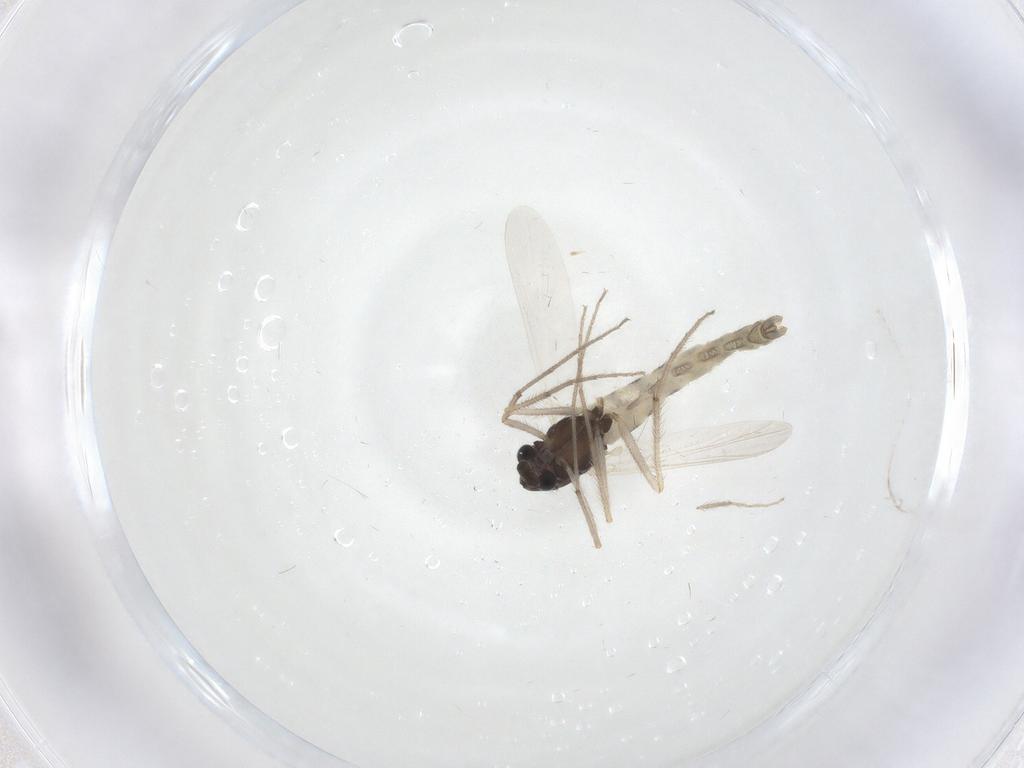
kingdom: Animalia
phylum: Arthropoda
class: Insecta
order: Diptera
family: Chironomidae
